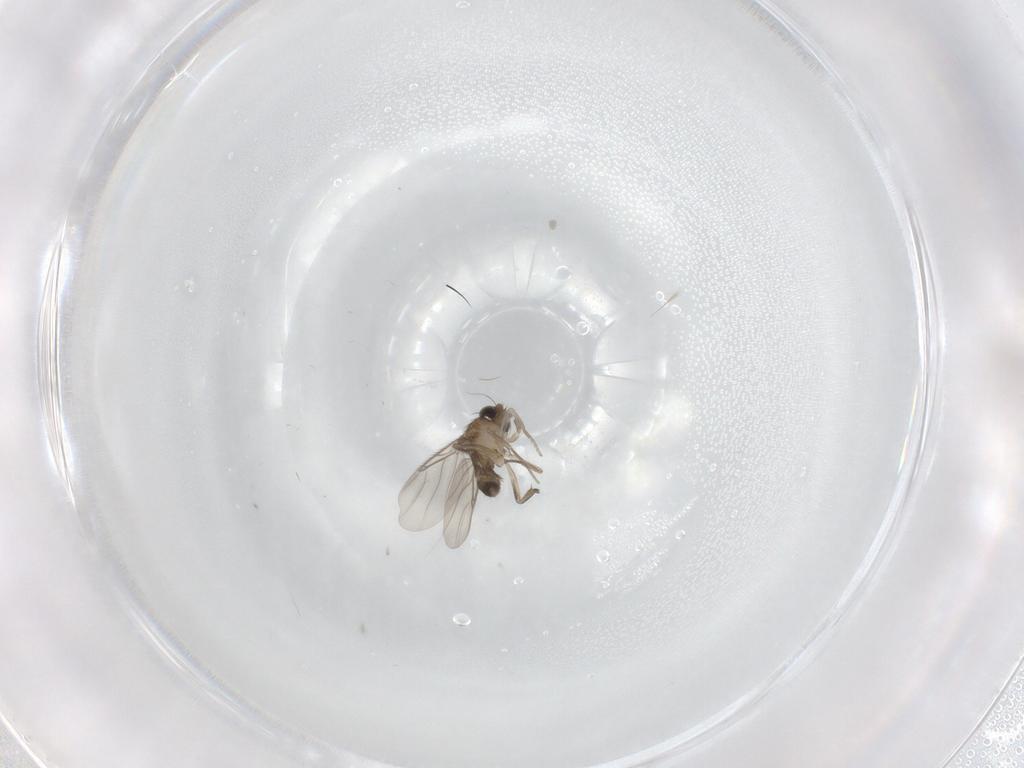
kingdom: Animalia
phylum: Arthropoda
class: Insecta
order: Diptera
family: Phoridae
